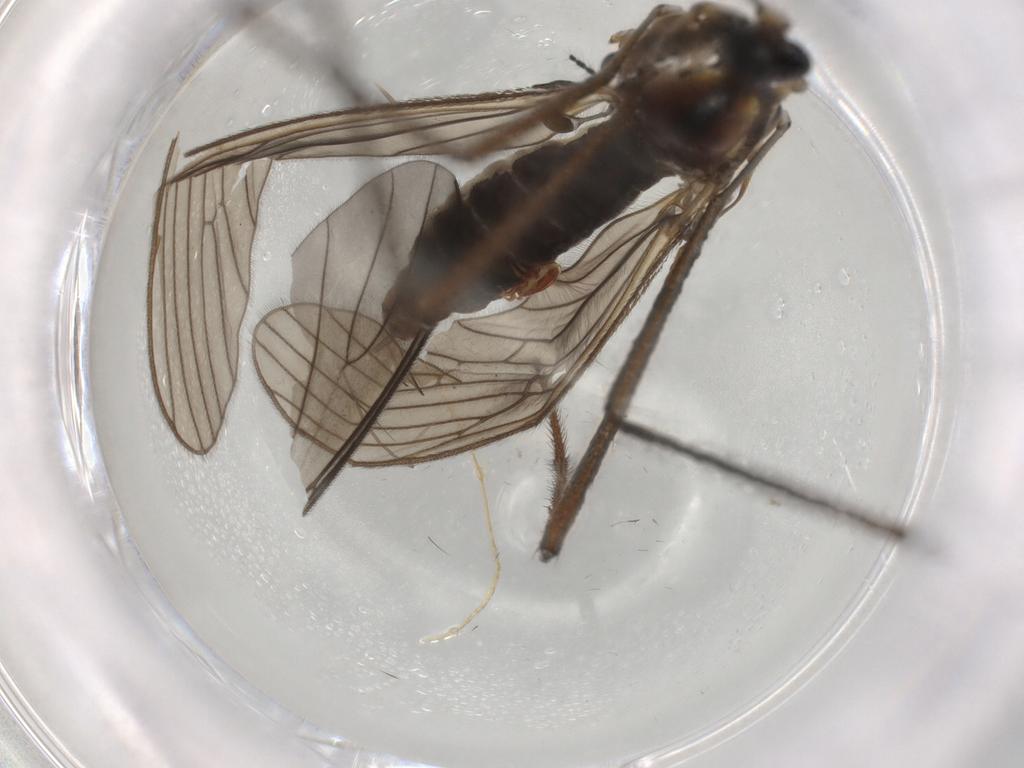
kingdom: Animalia
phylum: Arthropoda
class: Insecta
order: Diptera
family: Sciaridae
